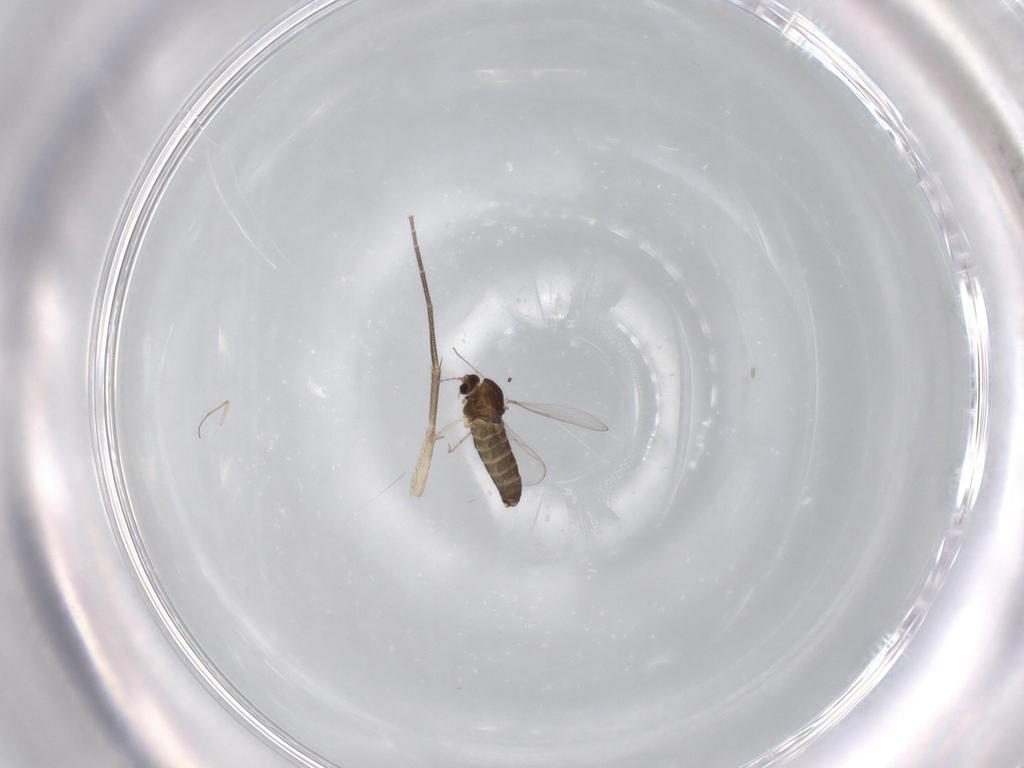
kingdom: Animalia
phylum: Arthropoda
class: Insecta
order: Diptera
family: Chironomidae
